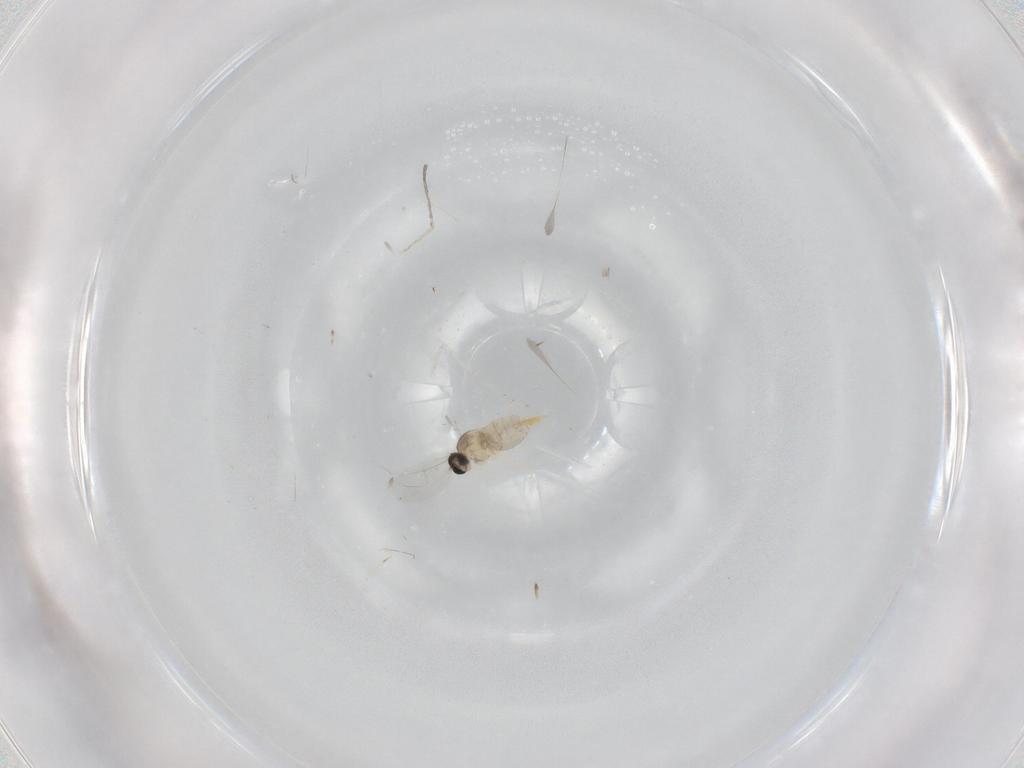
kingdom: Animalia
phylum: Arthropoda
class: Insecta
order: Diptera
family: Cecidomyiidae
